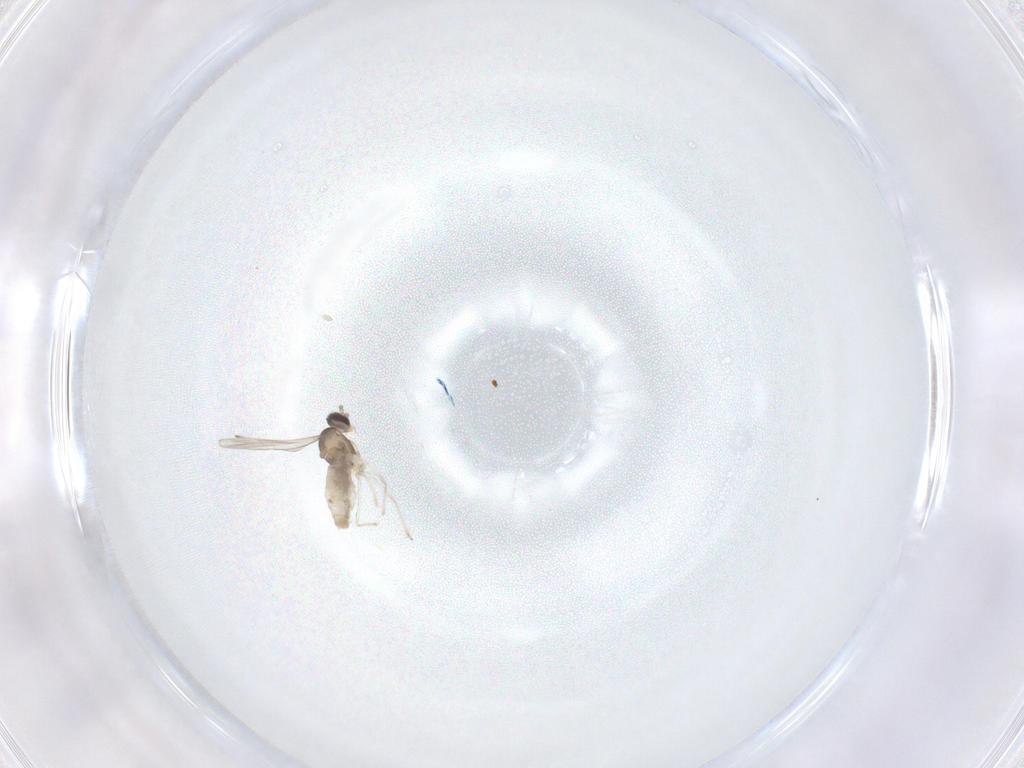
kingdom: Animalia
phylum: Arthropoda
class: Insecta
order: Diptera
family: Cecidomyiidae
